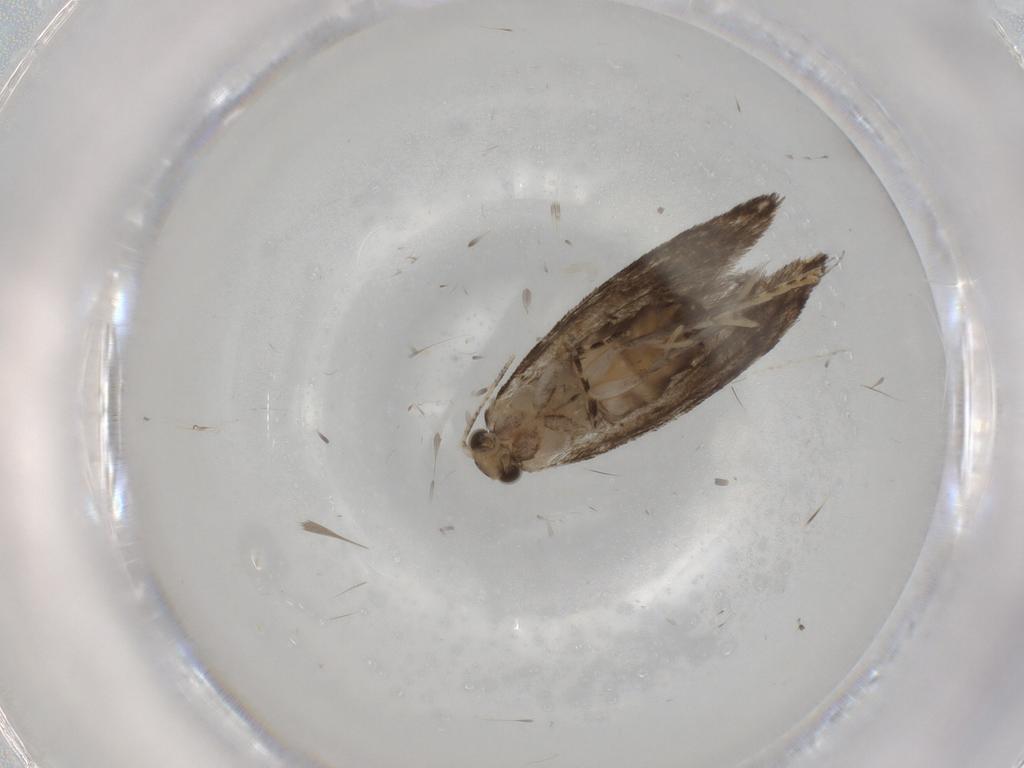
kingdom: Animalia
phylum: Arthropoda
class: Insecta
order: Lepidoptera
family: Tineidae
